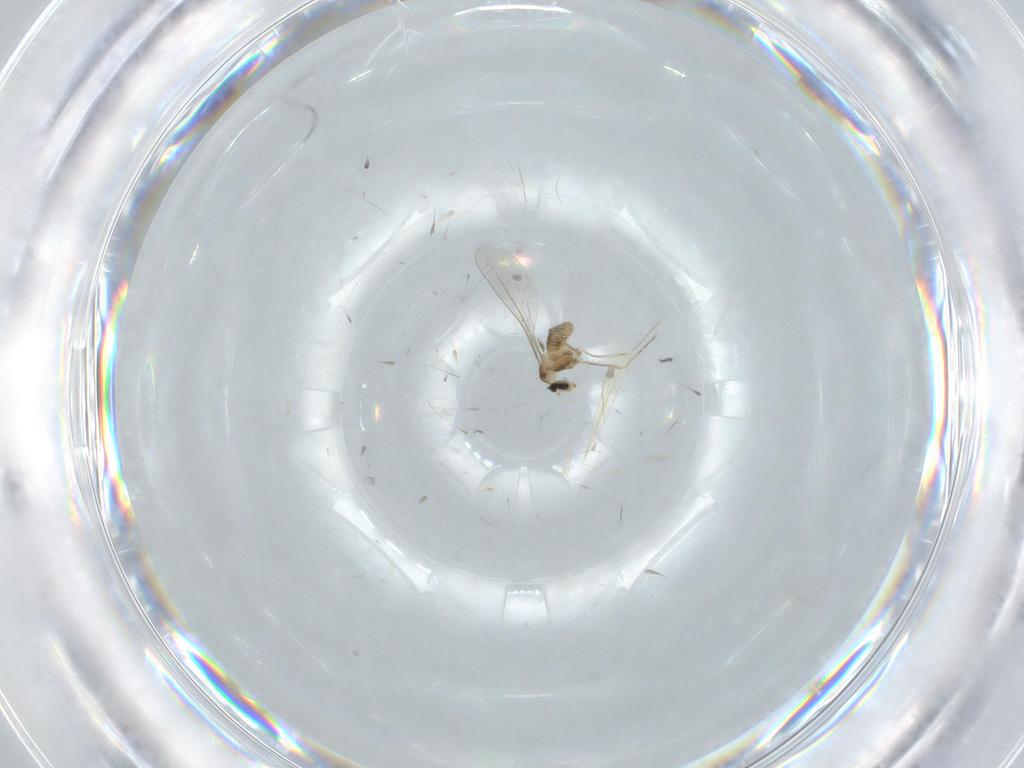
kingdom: Animalia
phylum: Arthropoda
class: Insecta
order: Diptera
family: Cecidomyiidae
